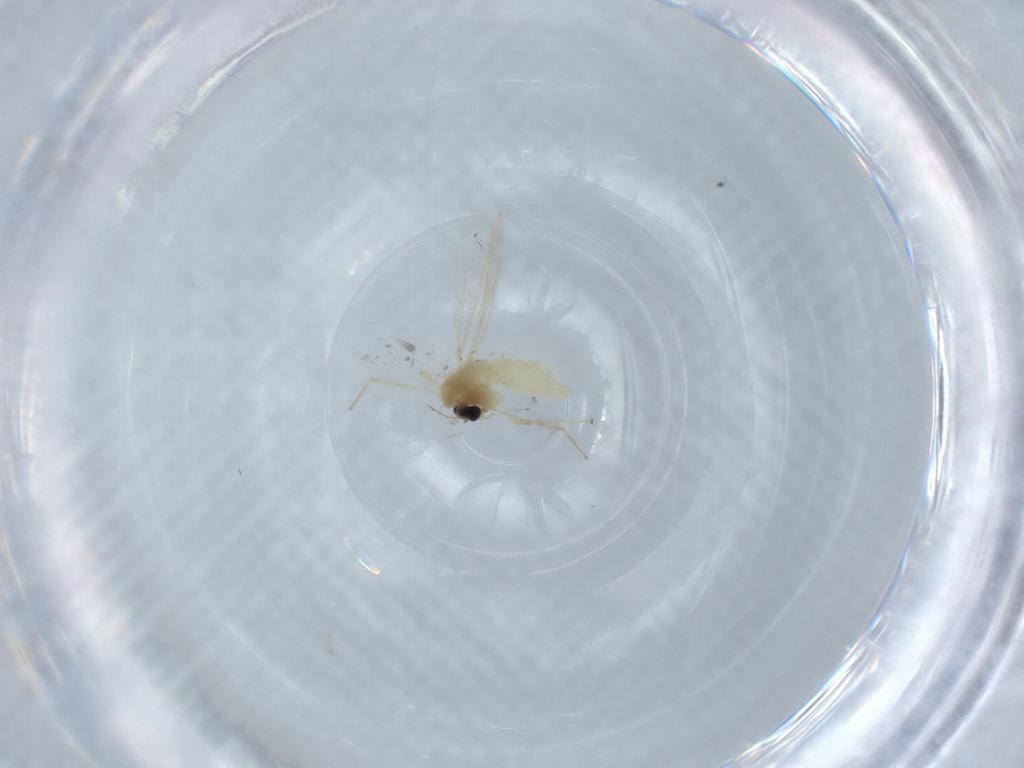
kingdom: Animalia
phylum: Arthropoda
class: Insecta
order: Diptera
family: Chironomidae
